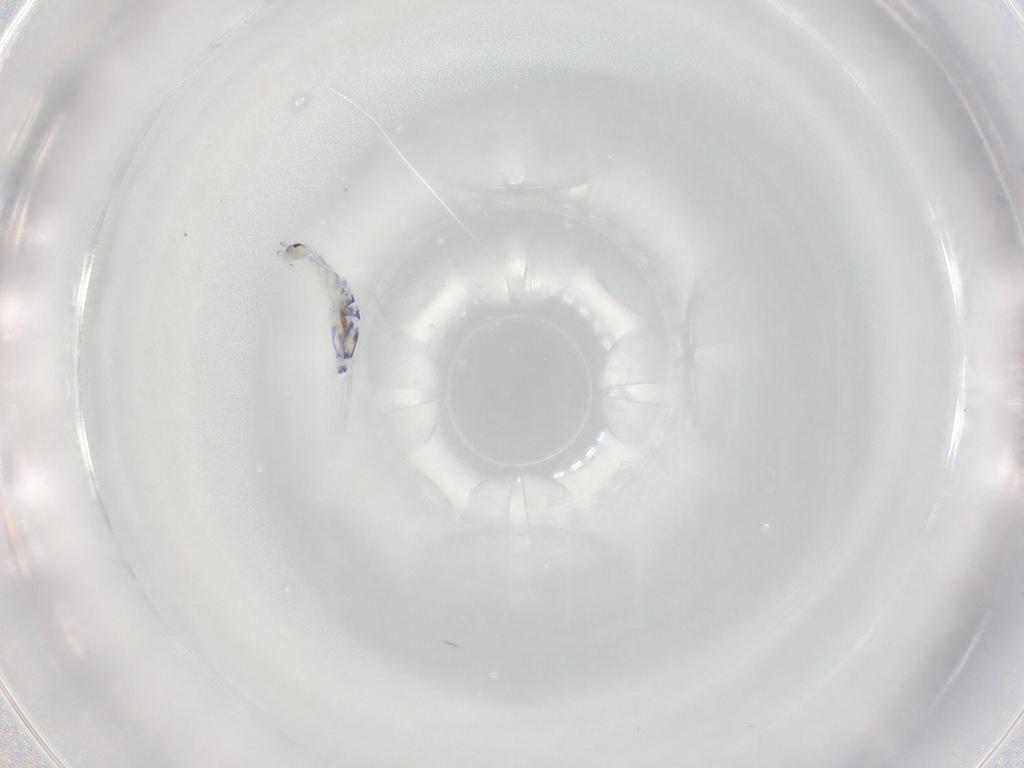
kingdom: Animalia
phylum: Arthropoda
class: Collembola
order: Entomobryomorpha
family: Entomobryidae
